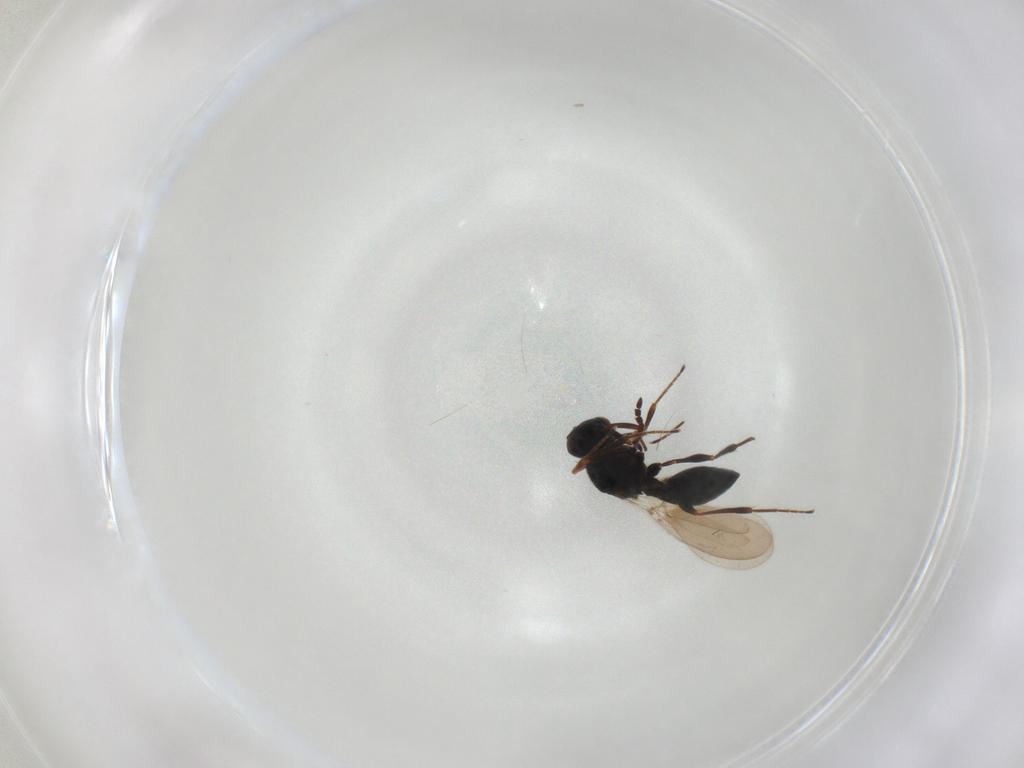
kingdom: Animalia
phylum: Arthropoda
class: Insecta
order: Hymenoptera
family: Platygastridae
